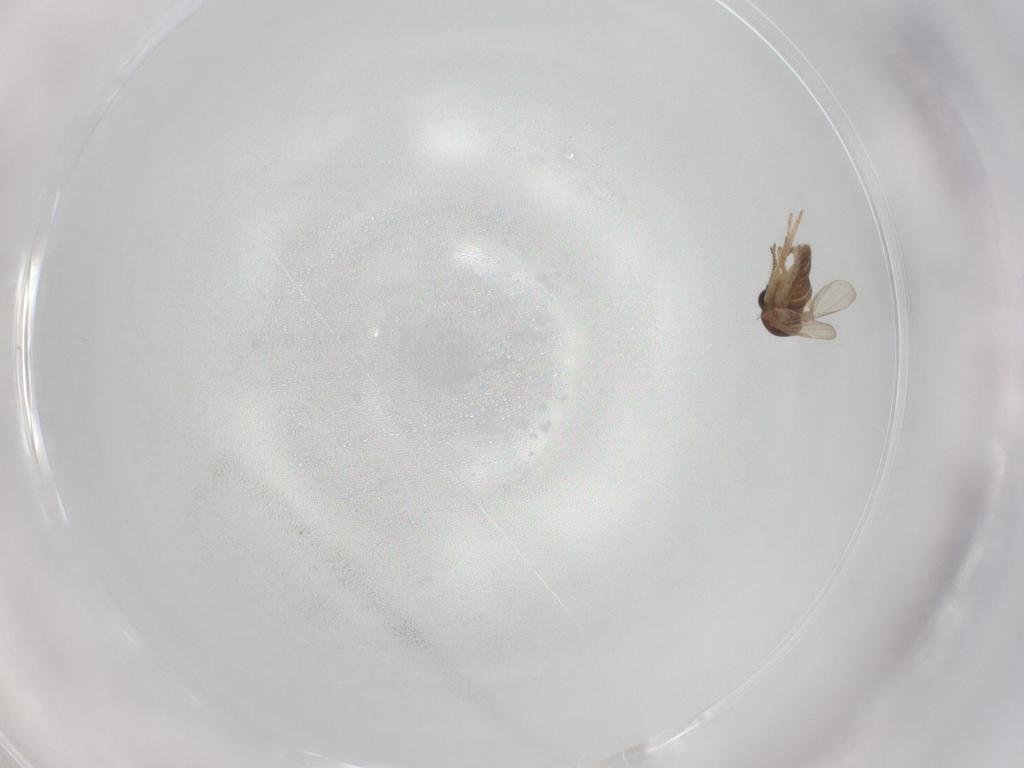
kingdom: Animalia
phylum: Arthropoda
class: Insecta
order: Diptera
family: Ceratopogonidae
